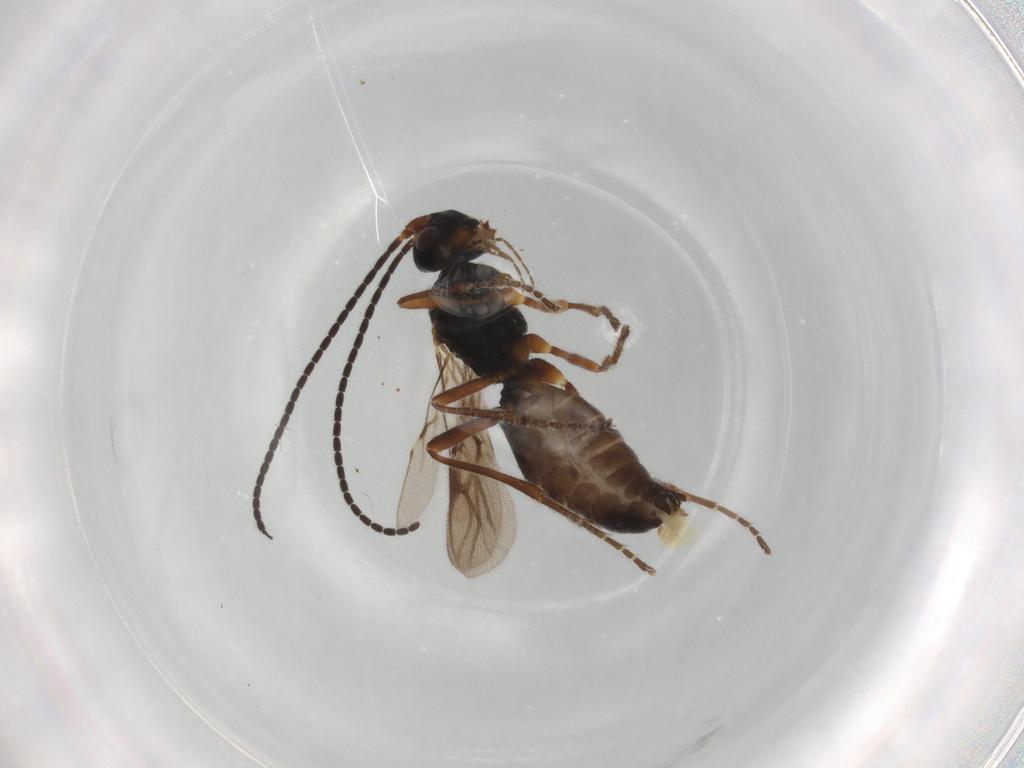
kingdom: Animalia
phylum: Arthropoda
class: Insecta
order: Hymenoptera
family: Braconidae
